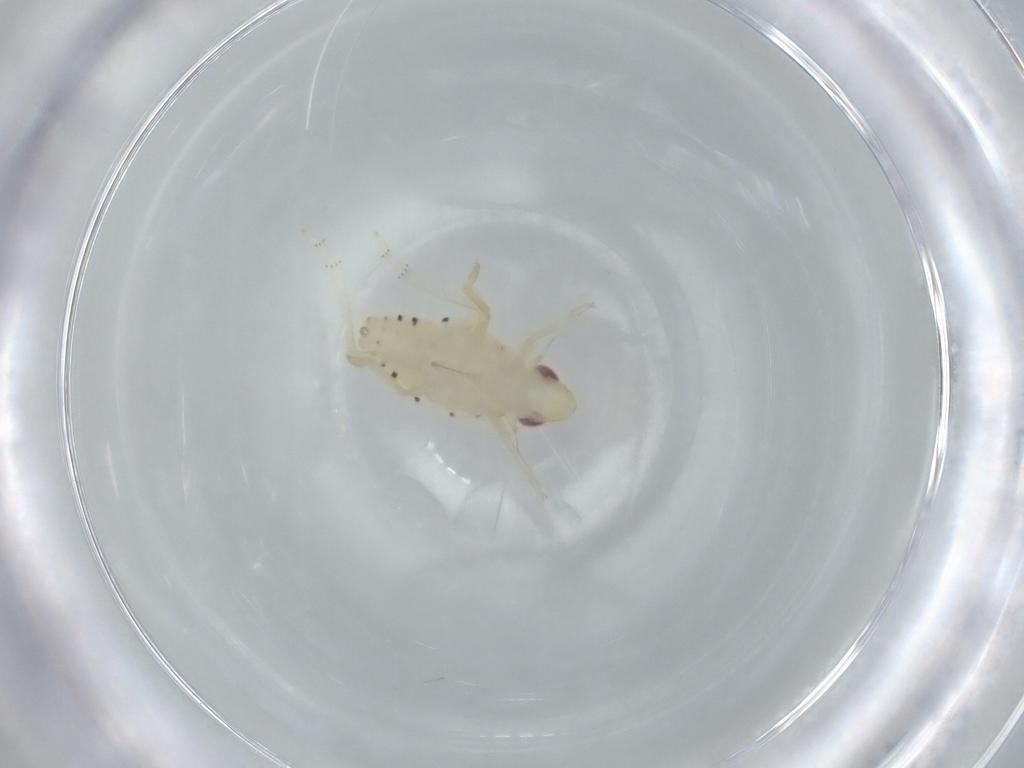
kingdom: Animalia
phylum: Arthropoda
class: Insecta
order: Hemiptera
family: Tropiduchidae
